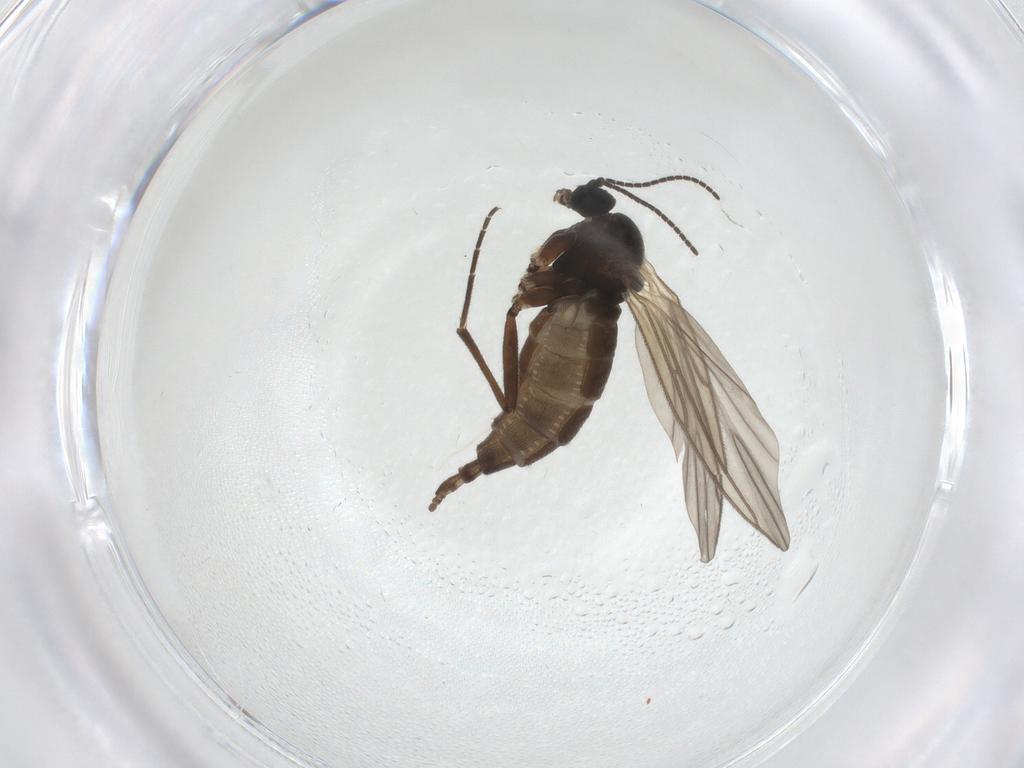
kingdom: Animalia
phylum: Arthropoda
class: Insecta
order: Diptera
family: Sciaridae
